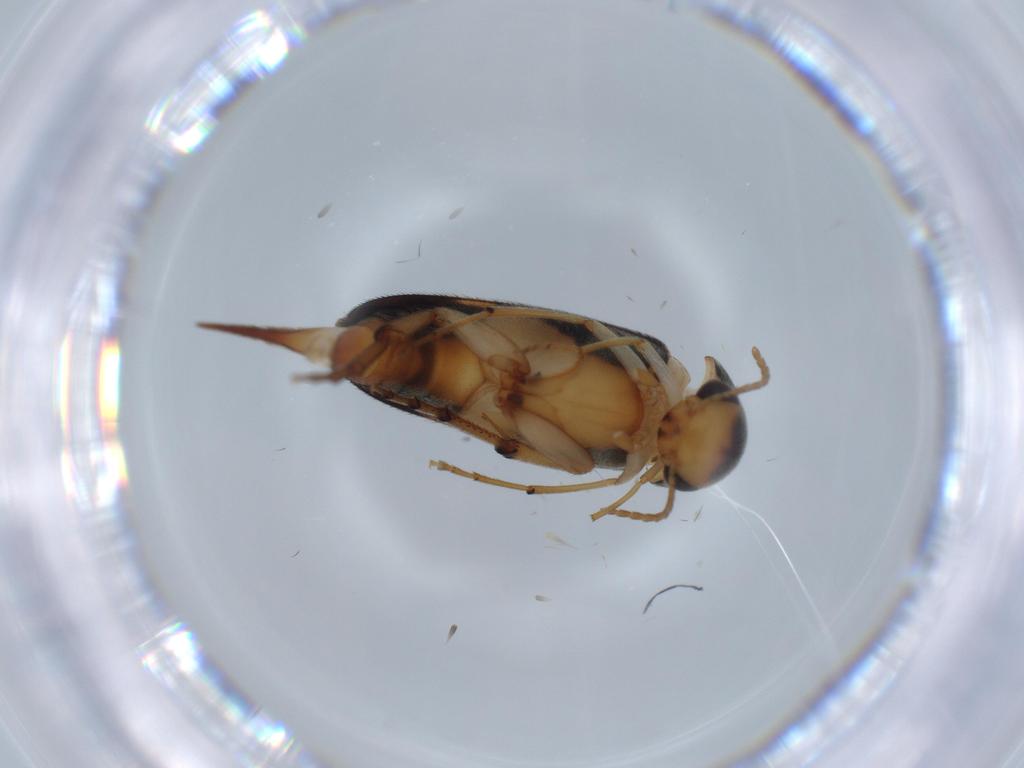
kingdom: Animalia
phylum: Arthropoda
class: Insecta
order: Coleoptera
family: Mordellidae
